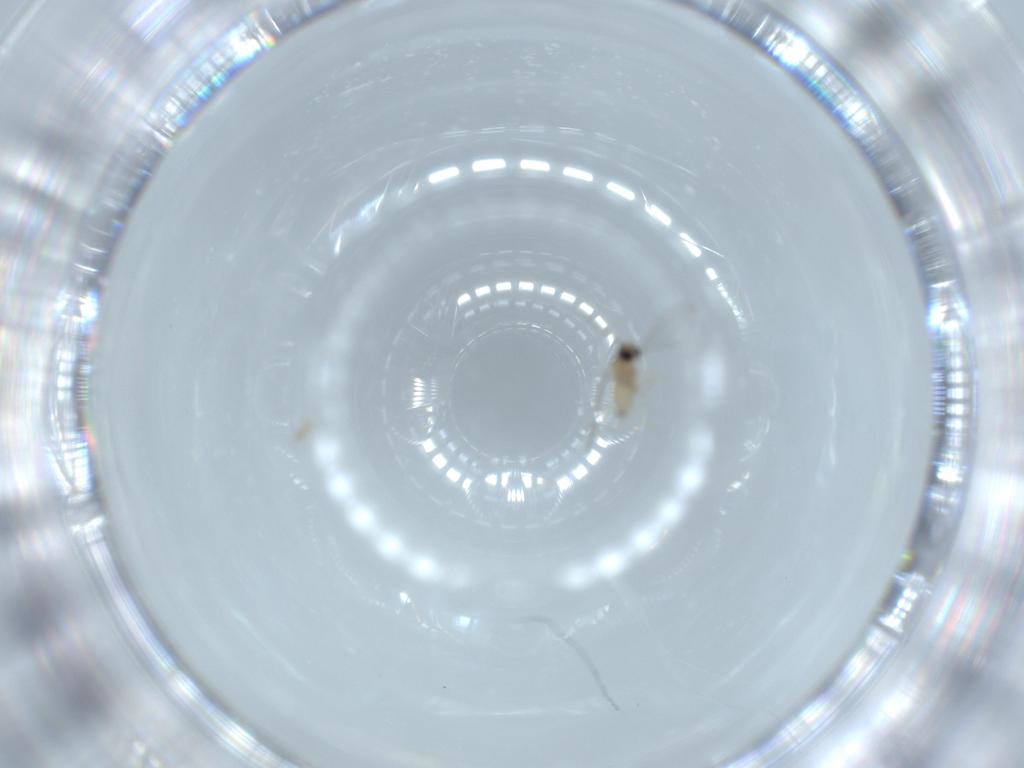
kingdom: Animalia
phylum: Arthropoda
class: Insecta
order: Diptera
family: Cecidomyiidae
